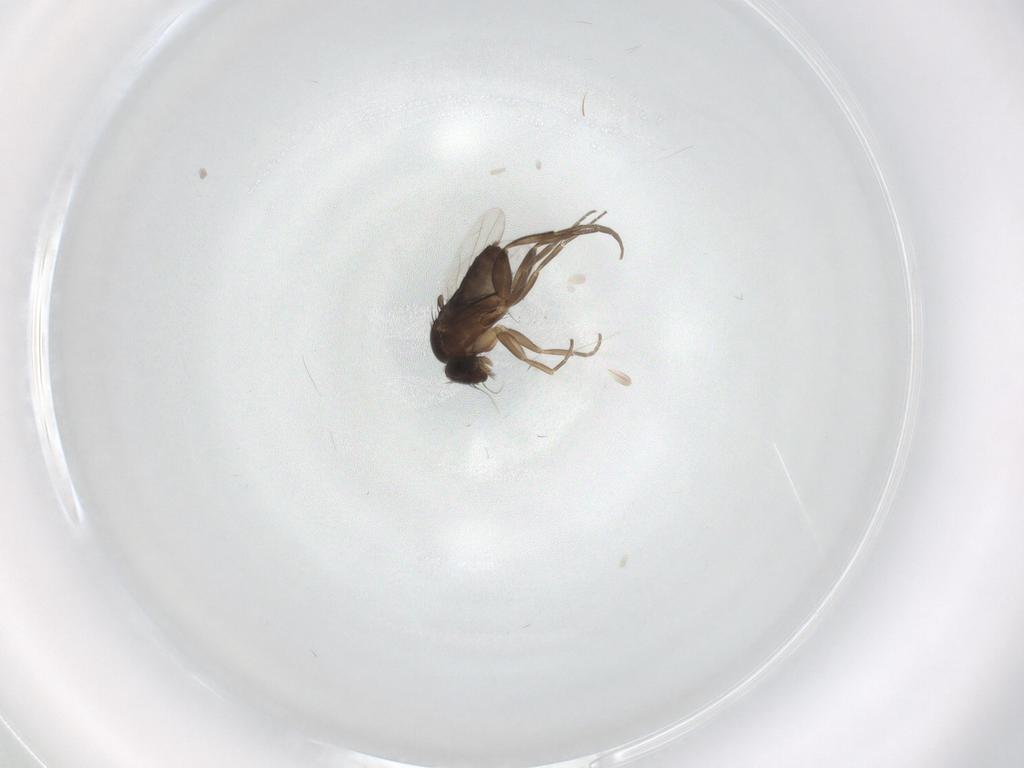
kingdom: Animalia
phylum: Arthropoda
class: Insecta
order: Diptera
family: Phoridae
